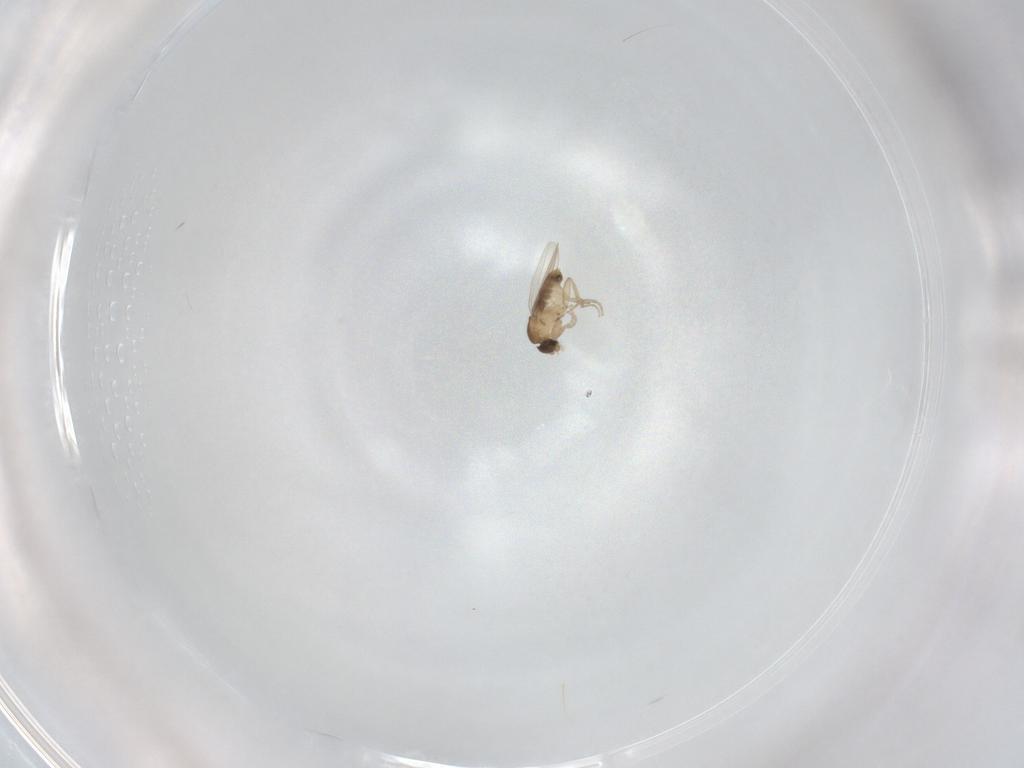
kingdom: Animalia
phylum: Arthropoda
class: Insecta
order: Diptera
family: Phoridae
